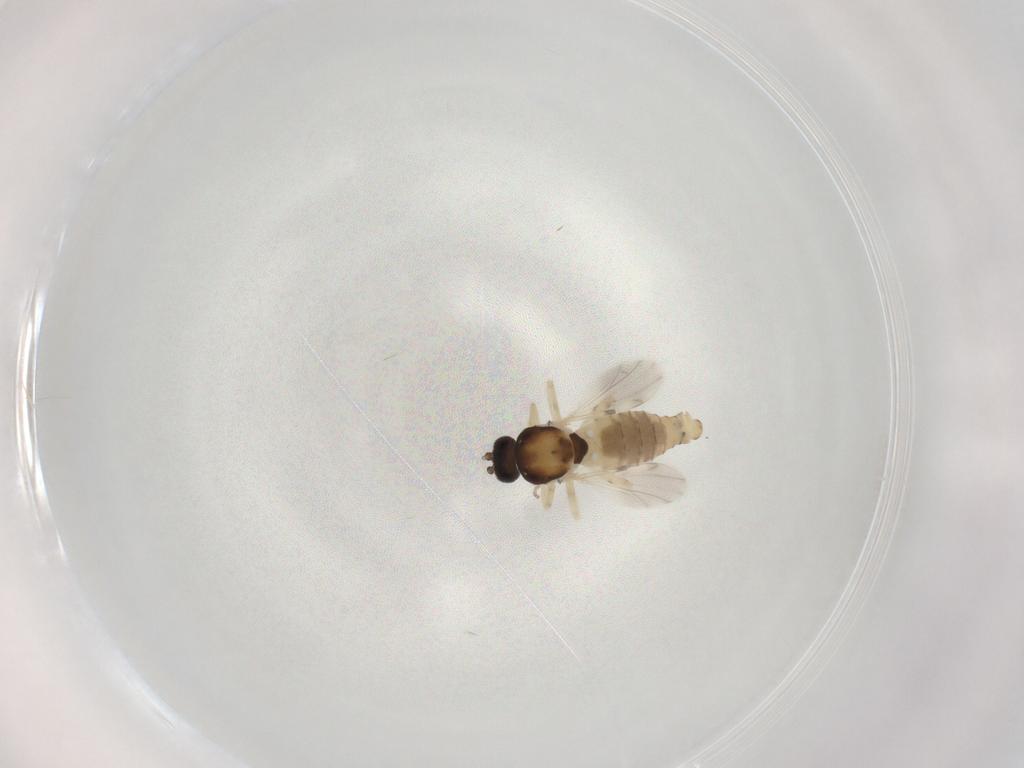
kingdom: Animalia
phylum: Arthropoda
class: Insecta
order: Diptera
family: Ceratopogonidae
